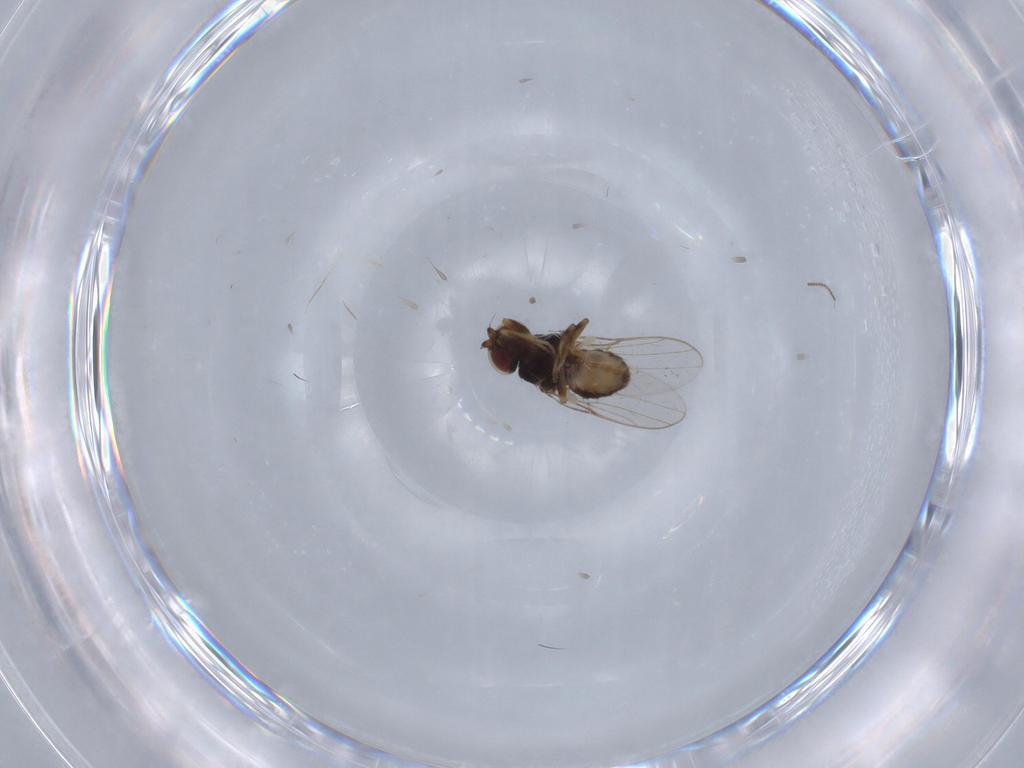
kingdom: Animalia
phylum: Arthropoda
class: Insecta
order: Diptera
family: Chloropidae
